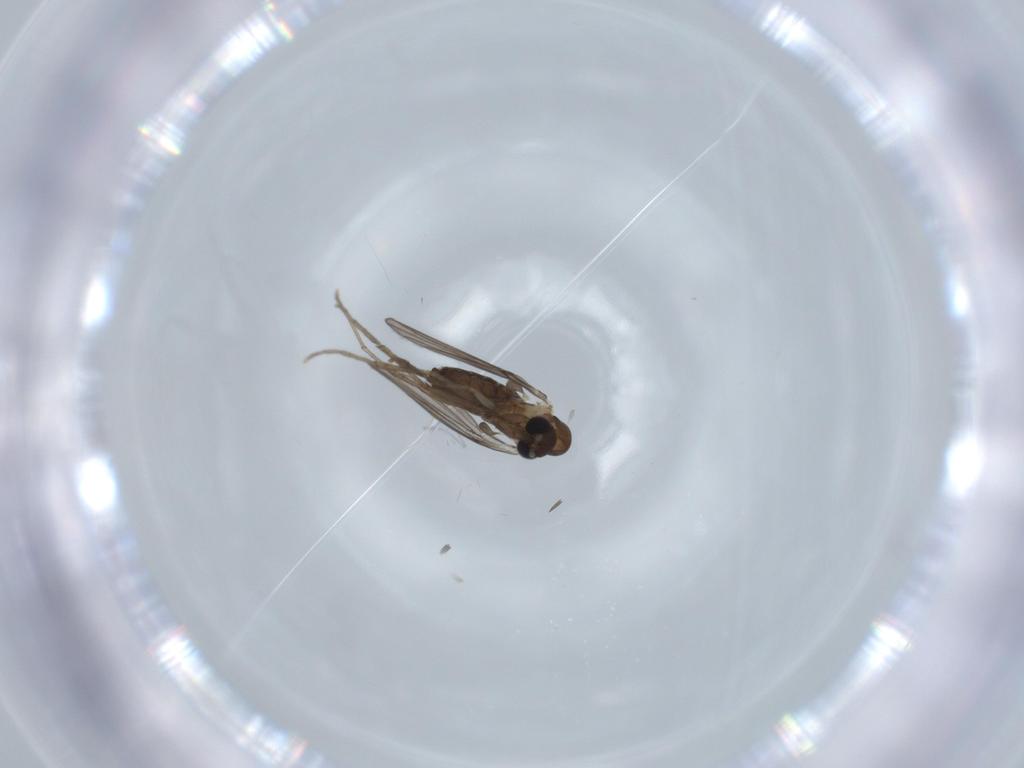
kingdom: Animalia
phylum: Arthropoda
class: Insecta
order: Diptera
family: Psychodidae
